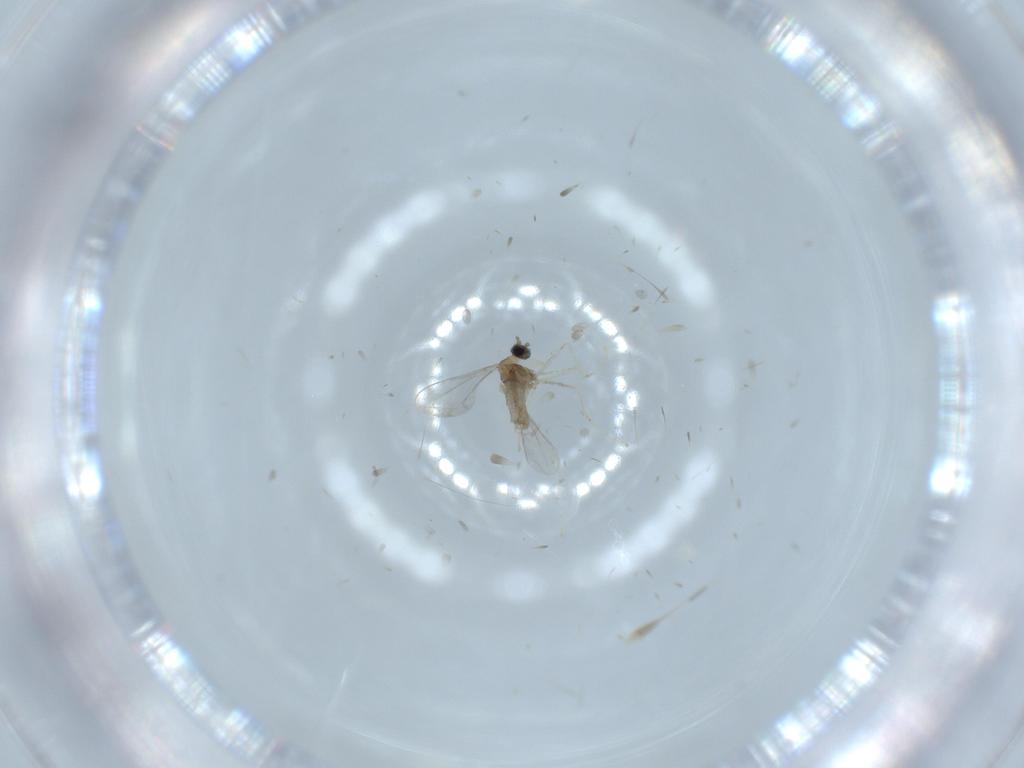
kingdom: Animalia
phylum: Arthropoda
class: Insecta
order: Diptera
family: Cecidomyiidae
